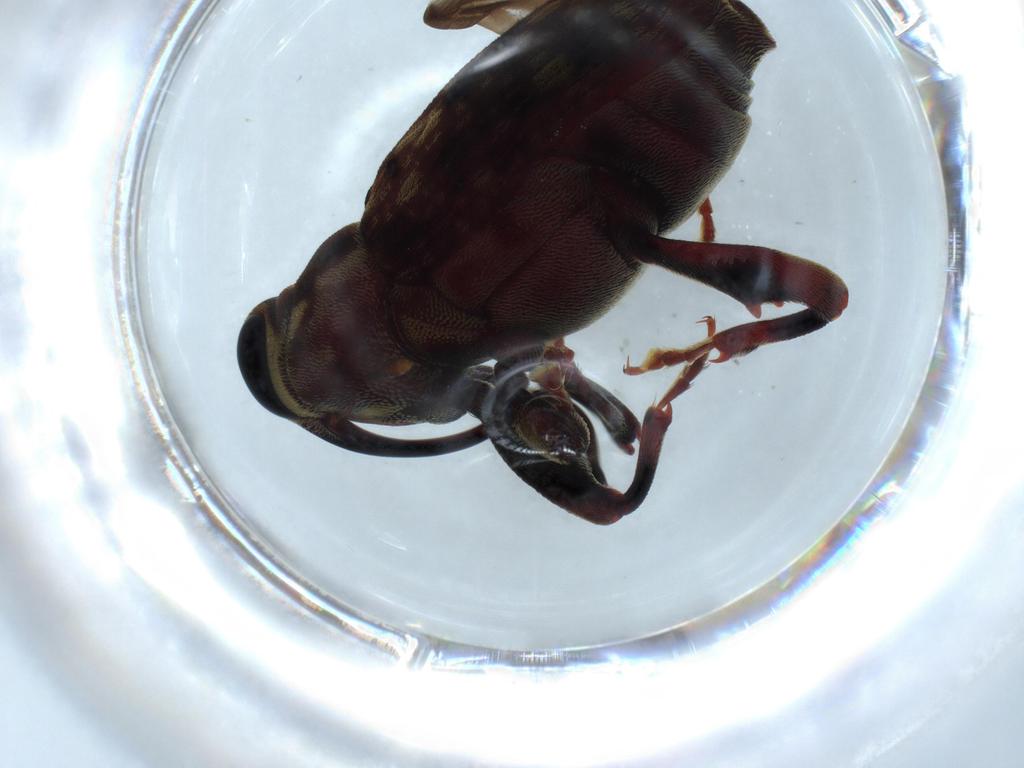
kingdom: Animalia
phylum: Arthropoda
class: Insecta
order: Coleoptera
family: Curculionidae
